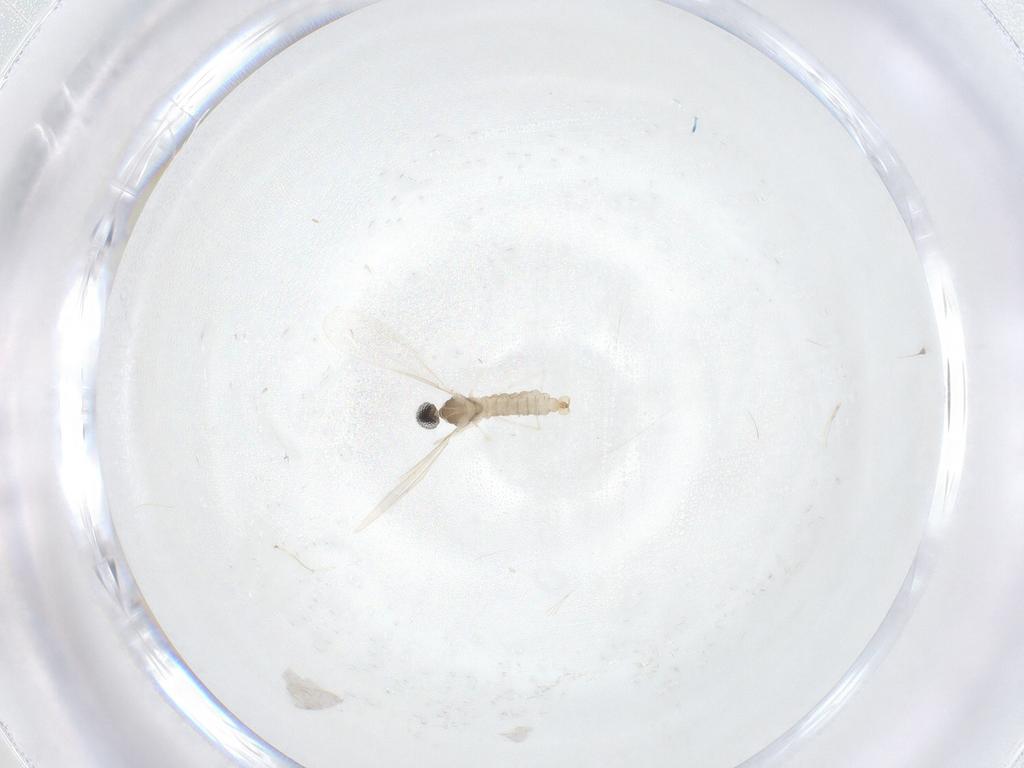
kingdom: Animalia
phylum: Arthropoda
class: Insecta
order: Diptera
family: Cecidomyiidae
